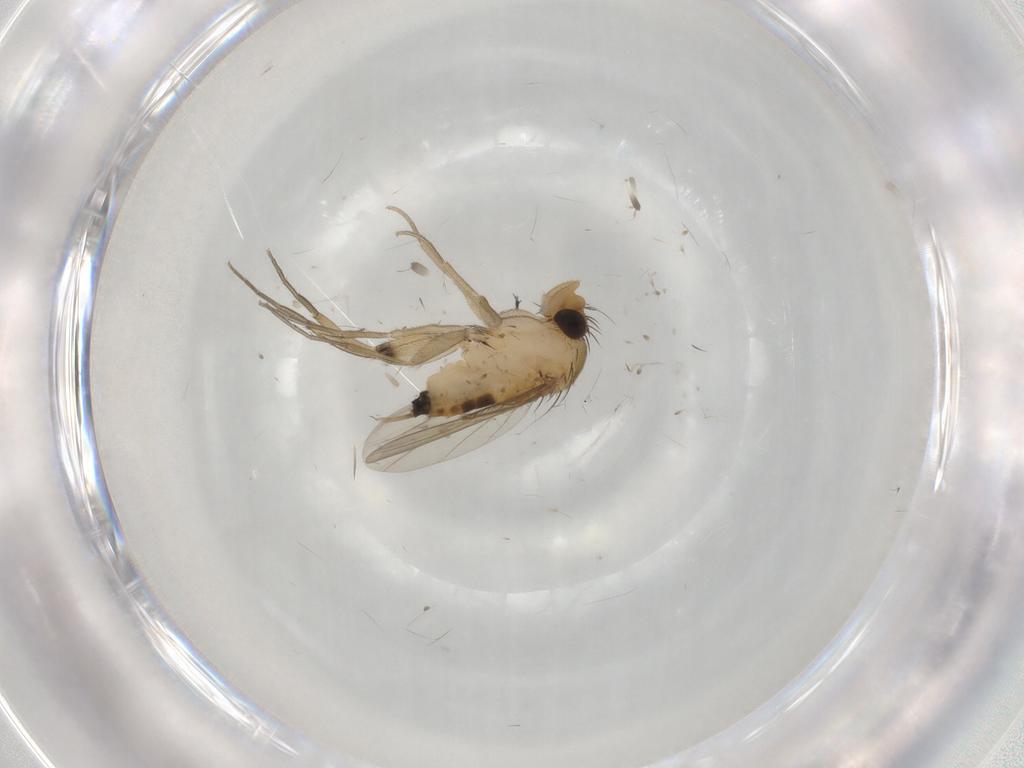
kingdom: Animalia
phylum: Arthropoda
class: Insecta
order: Diptera
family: Phoridae
